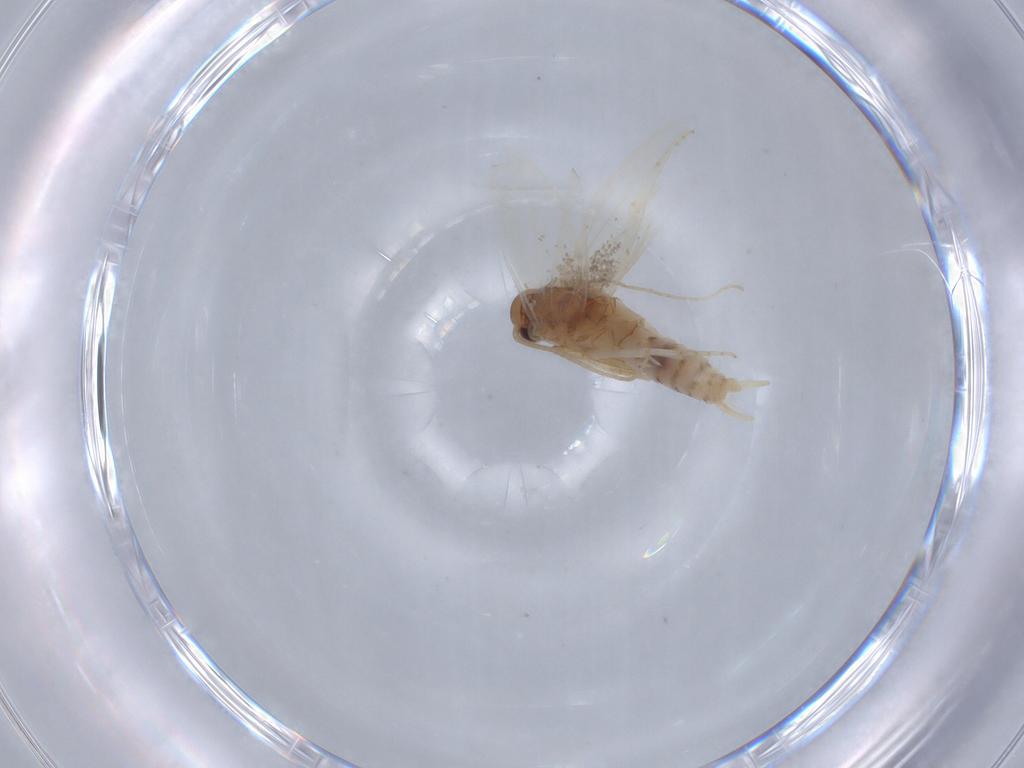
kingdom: Animalia
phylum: Arthropoda
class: Insecta
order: Lepidoptera
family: Elachistidae
